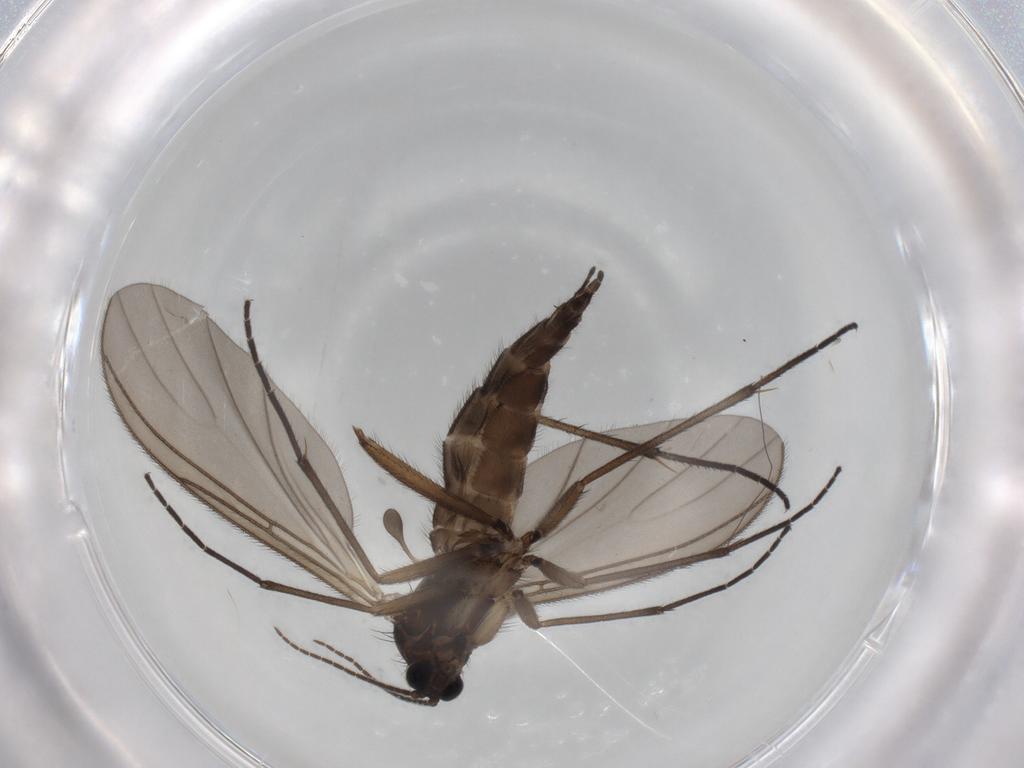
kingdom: Animalia
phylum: Arthropoda
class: Insecta
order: Diptera
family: Sciaridae
